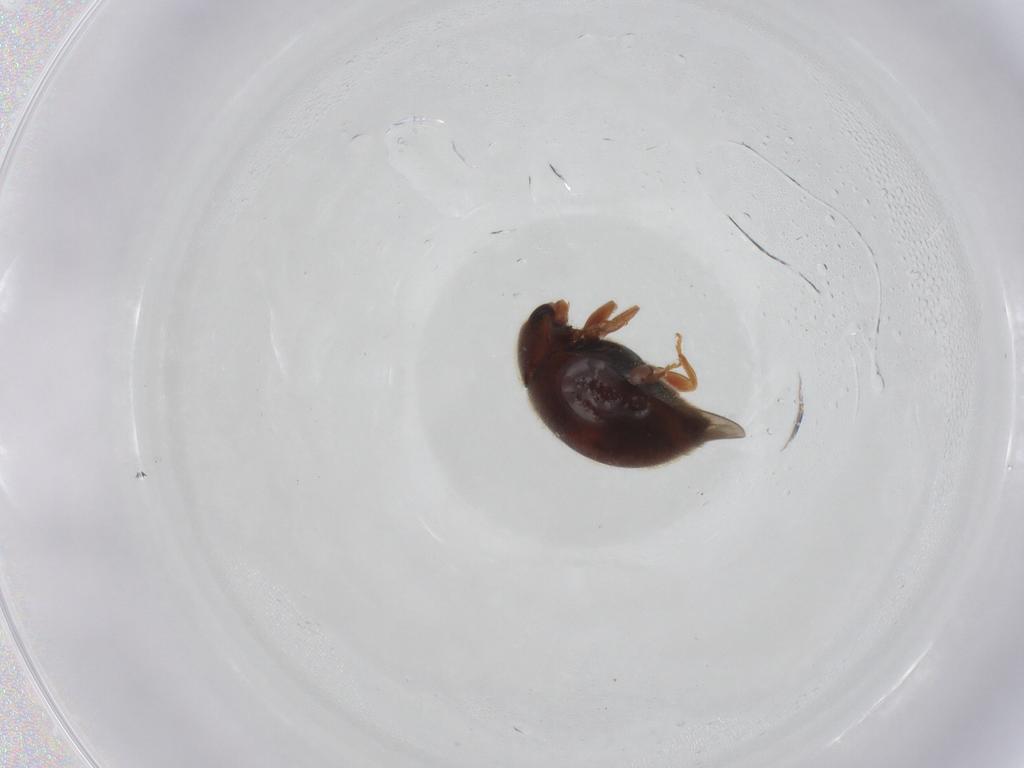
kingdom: Animalia
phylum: Arthropoda
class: Insecta
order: Coleoptera
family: Coccinellidae
